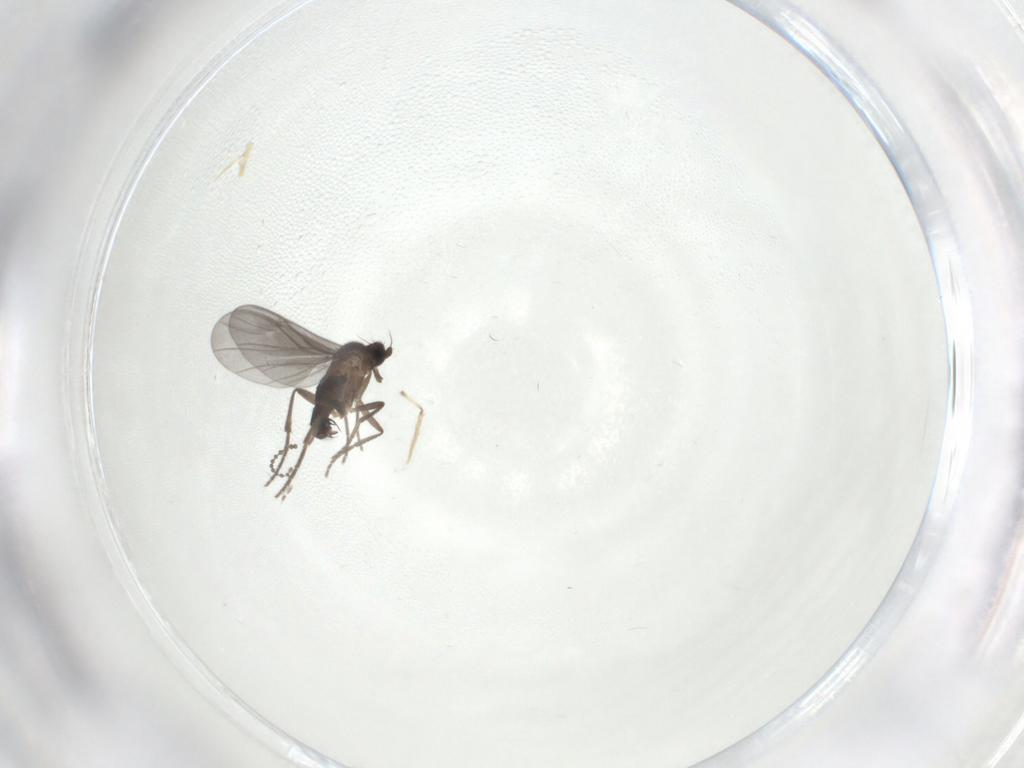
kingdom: Animalia
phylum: Arthropoda
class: Insecta
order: Diptera
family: Phoridae
